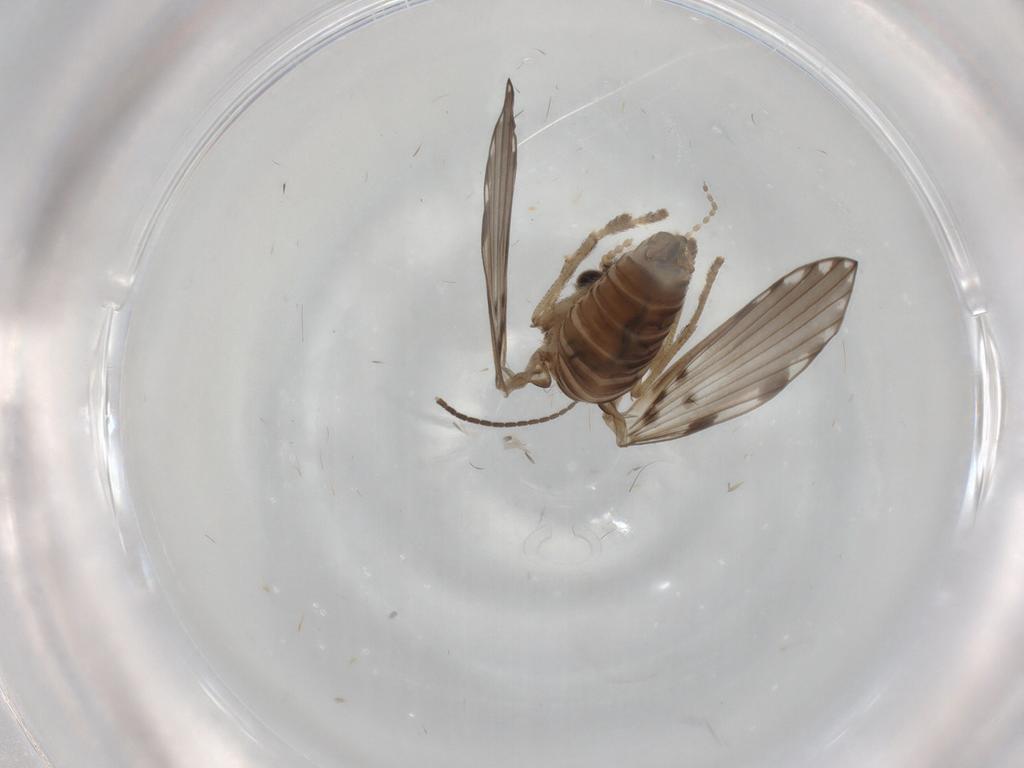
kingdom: Animalia
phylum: Arthropoda
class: Insecta
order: Diptera
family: Psychodidae
